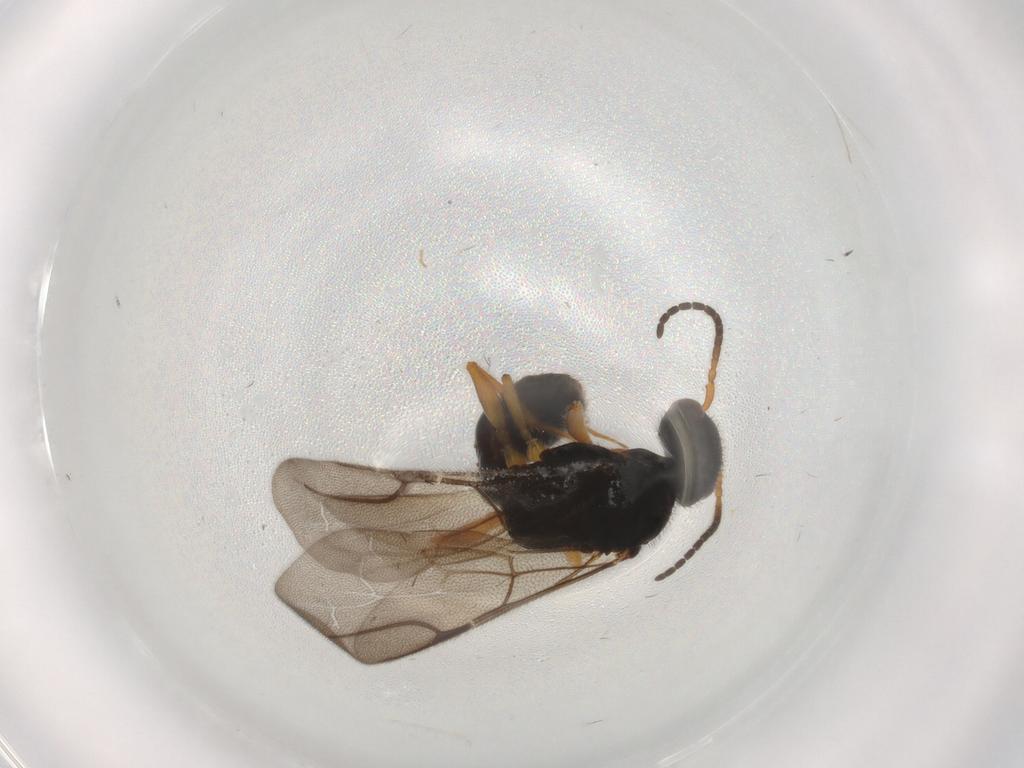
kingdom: Animalia
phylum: Arthropoda
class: Insecta
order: Hymenoptera
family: Bethylidae
